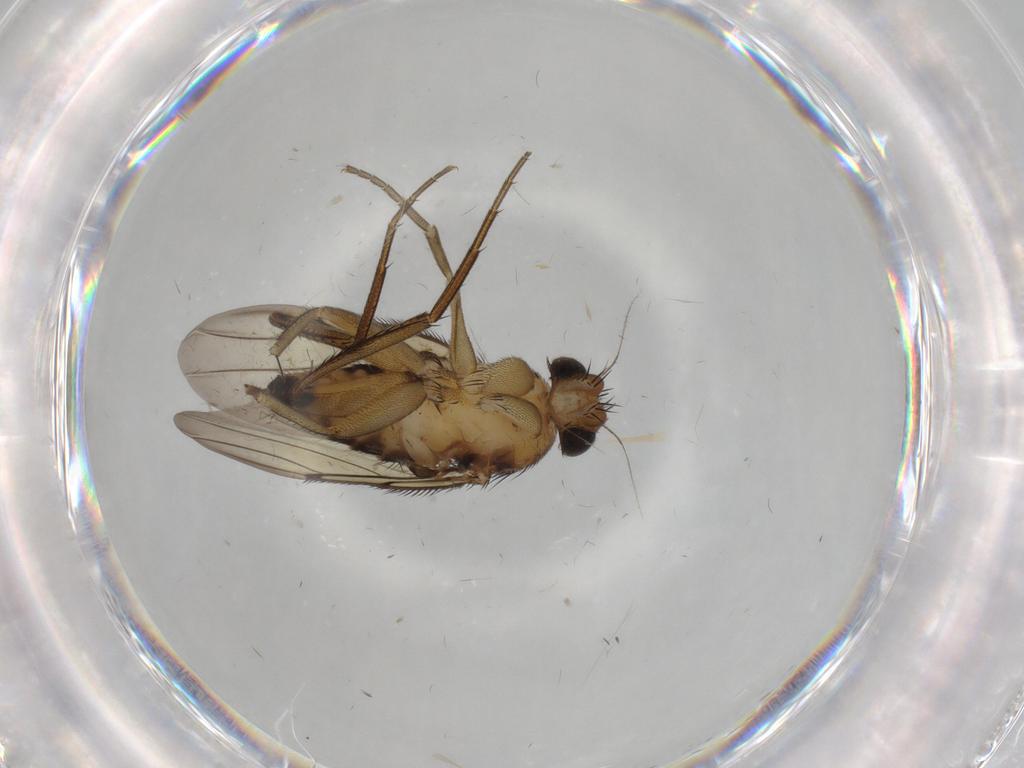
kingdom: Animalia
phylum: Arthropoda
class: Insecta
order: Diptera
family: Phoridae
